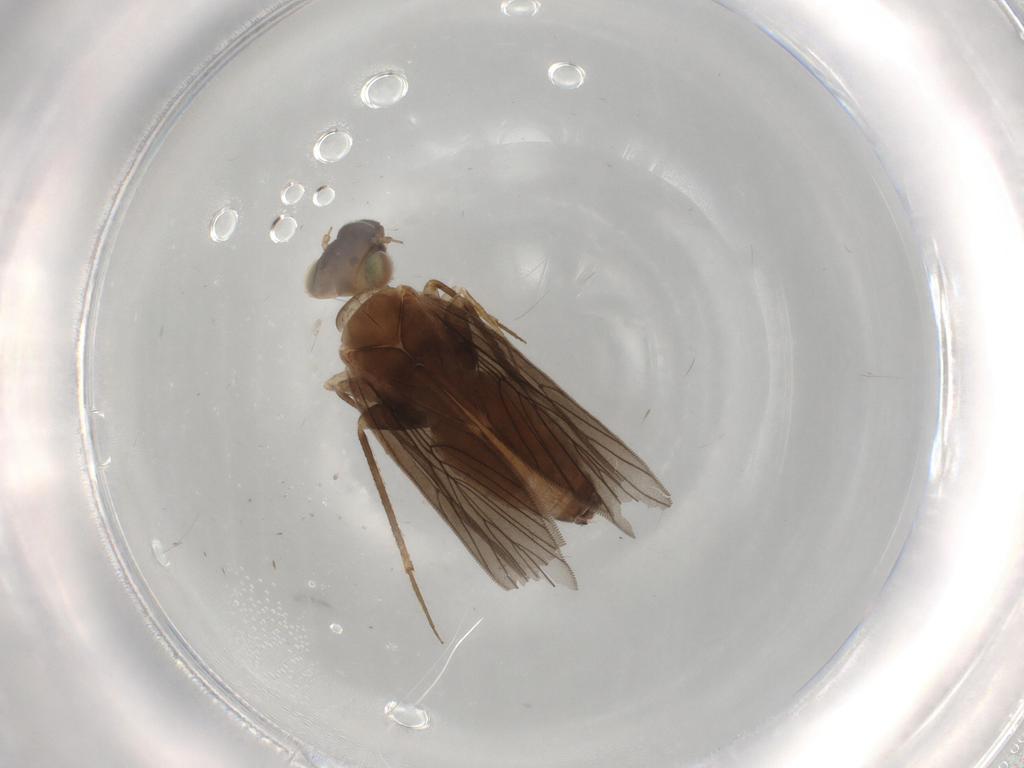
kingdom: Animalia
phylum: Arthropoda
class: Insecta
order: Psocodea
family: Lepidopsocidae
